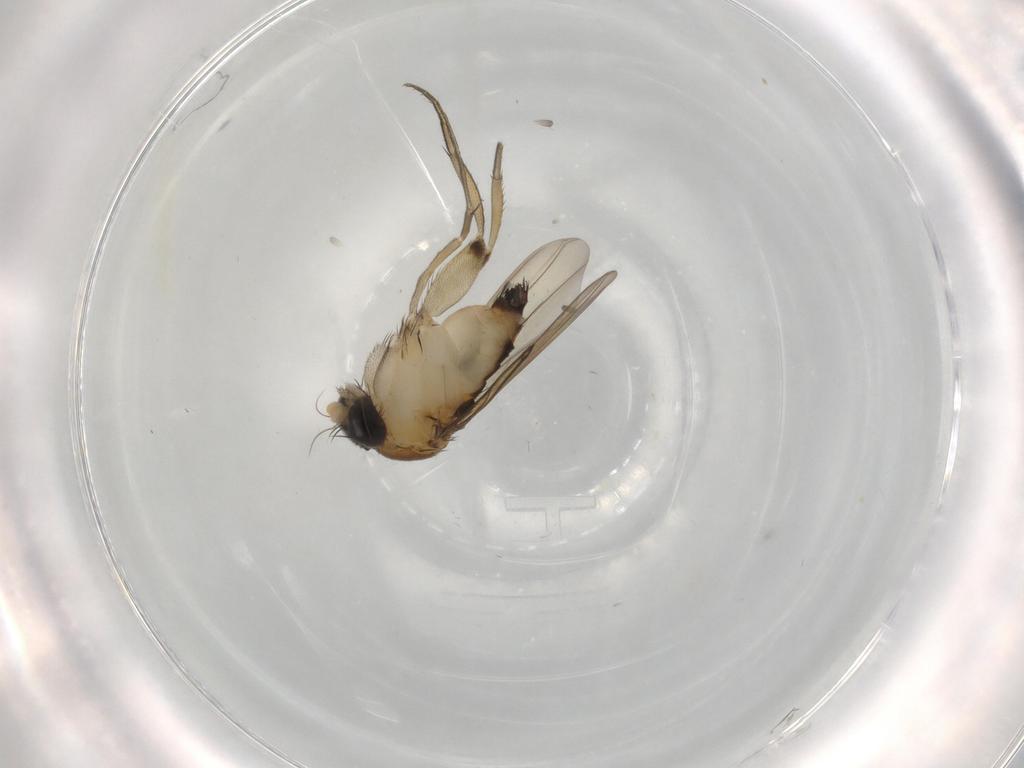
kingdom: Animalia
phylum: Arthropoda
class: Insecta
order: Diptera
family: Phoridae
